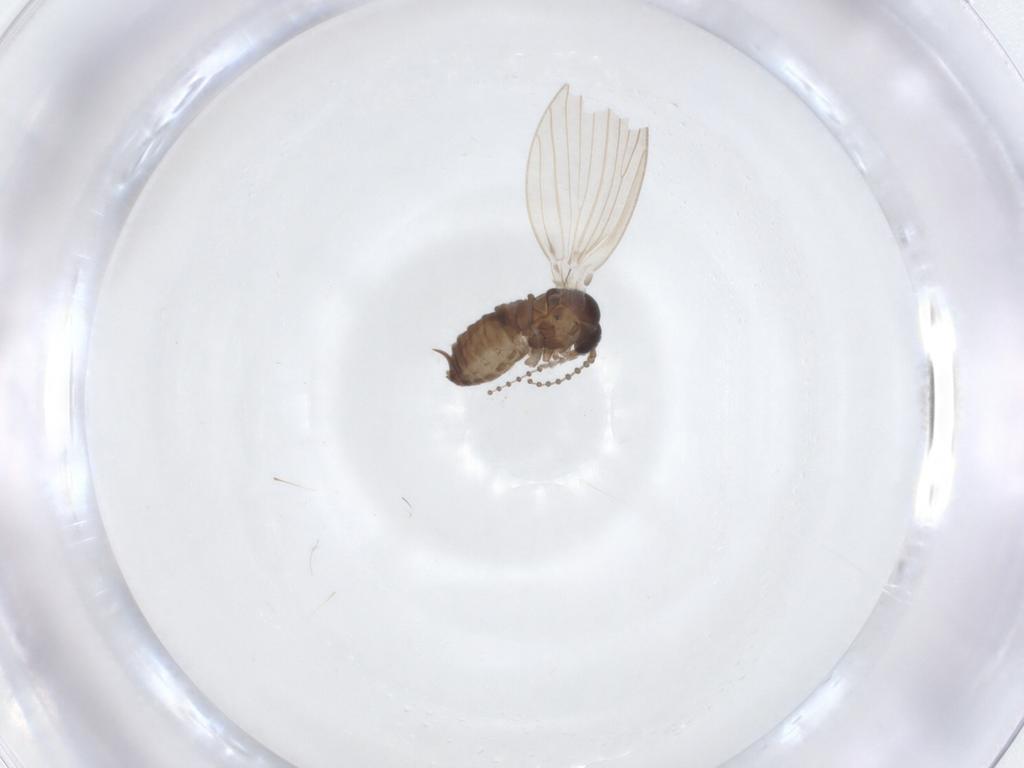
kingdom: Animalia
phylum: Arthropoda
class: Insecta
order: Diptera
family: Psychodidae
